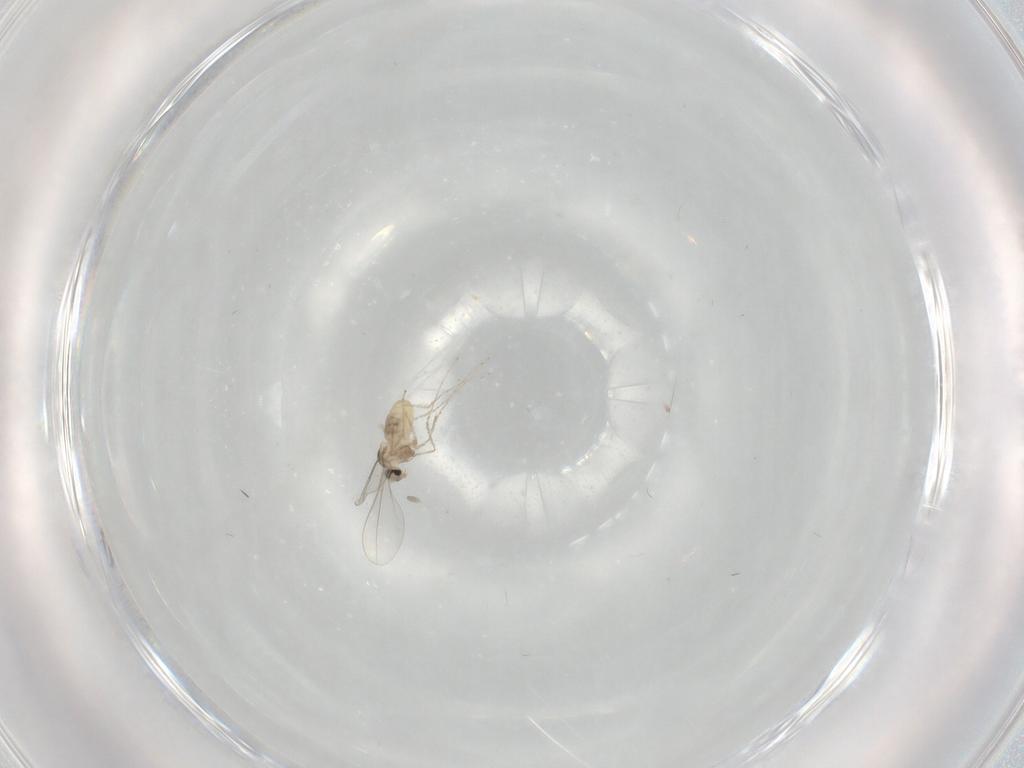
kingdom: Animalia
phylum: Arthropoda
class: Insecta
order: Diptera
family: Cecidomyiidae
